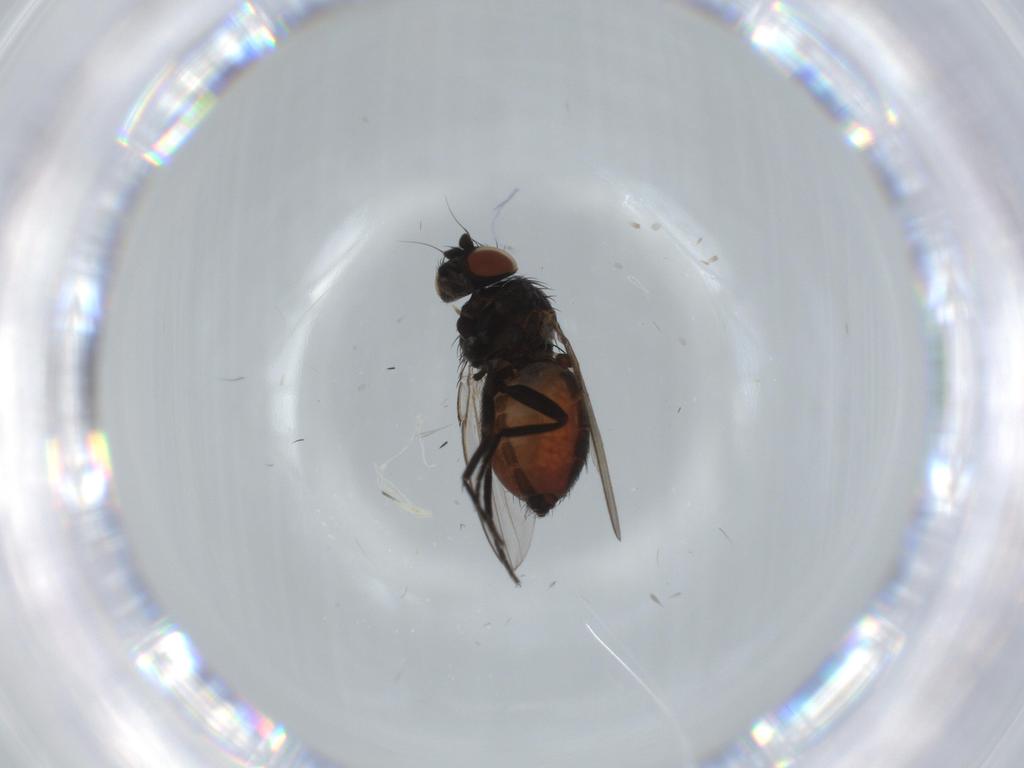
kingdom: Animalia
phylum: Arthropoda
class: Insecta
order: Diptera
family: Milichiidae
